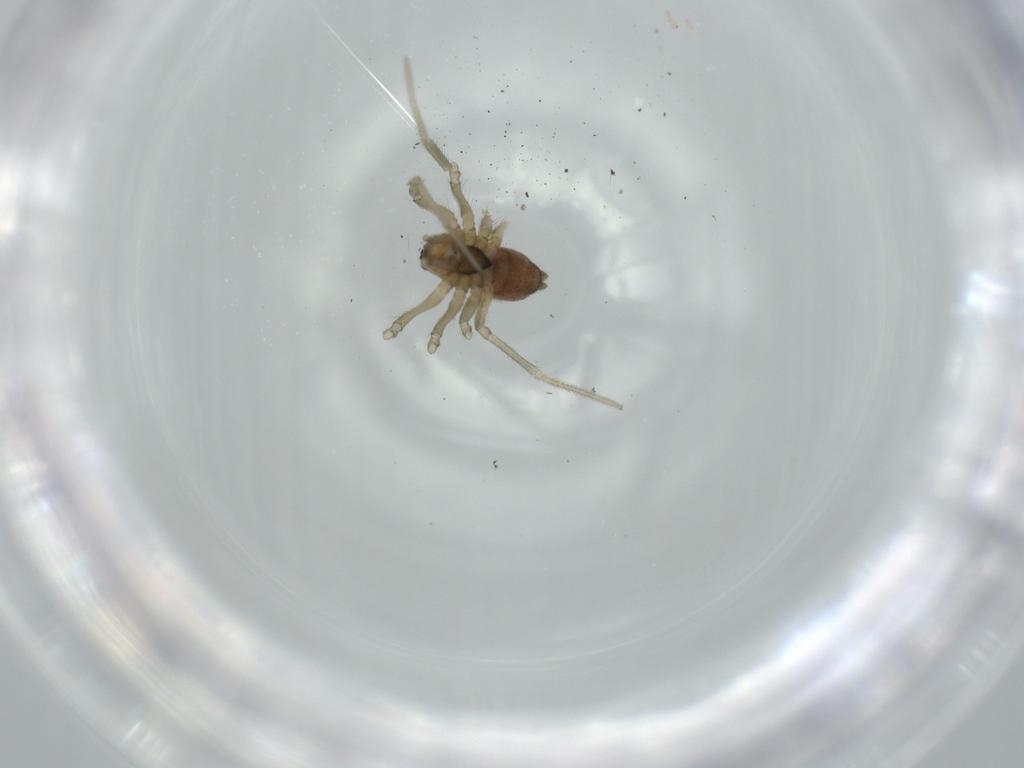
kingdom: Animalia
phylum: Arthropoda
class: Arachnida
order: Araneae
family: Linyphiidae
